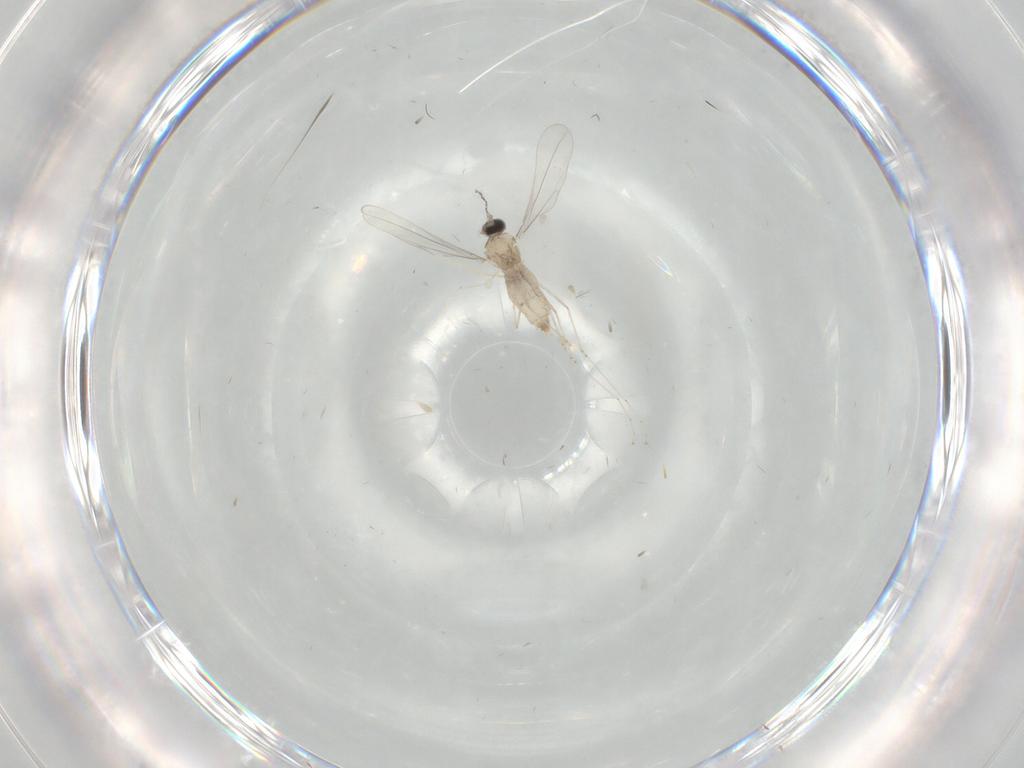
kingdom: Animalia
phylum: Arthropoda
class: Insecta
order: Diptera
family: Cecidomyiidae
